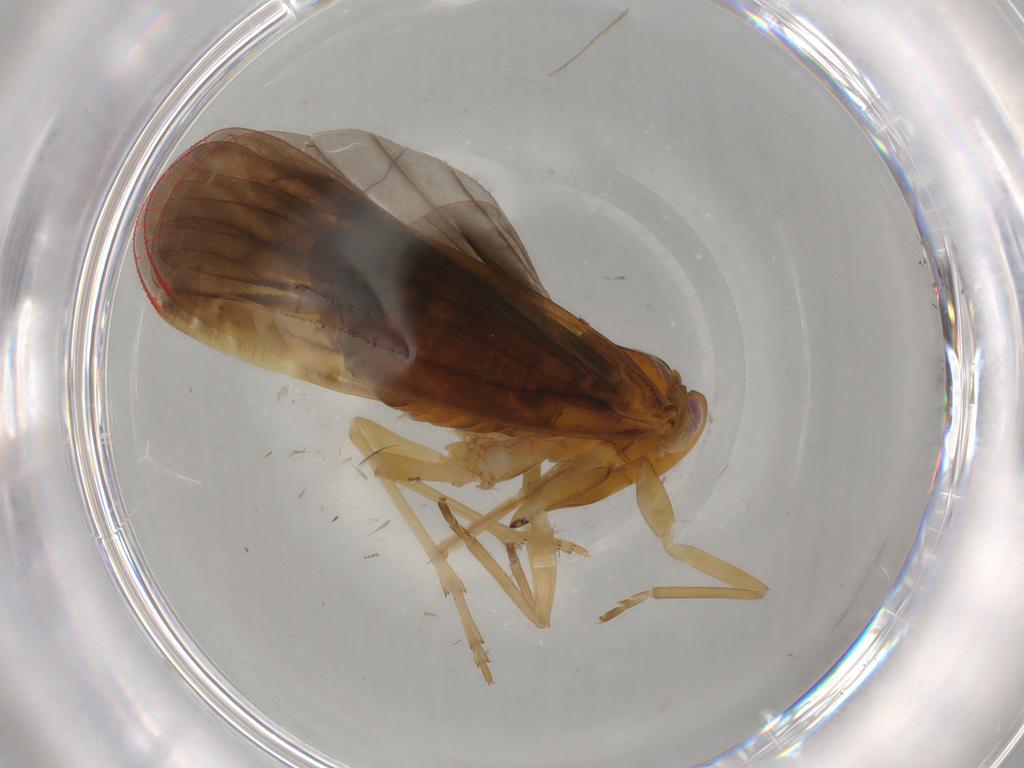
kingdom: Animalia
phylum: Arthropoda
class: Insecta
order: Hemiptera
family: Derbidae
